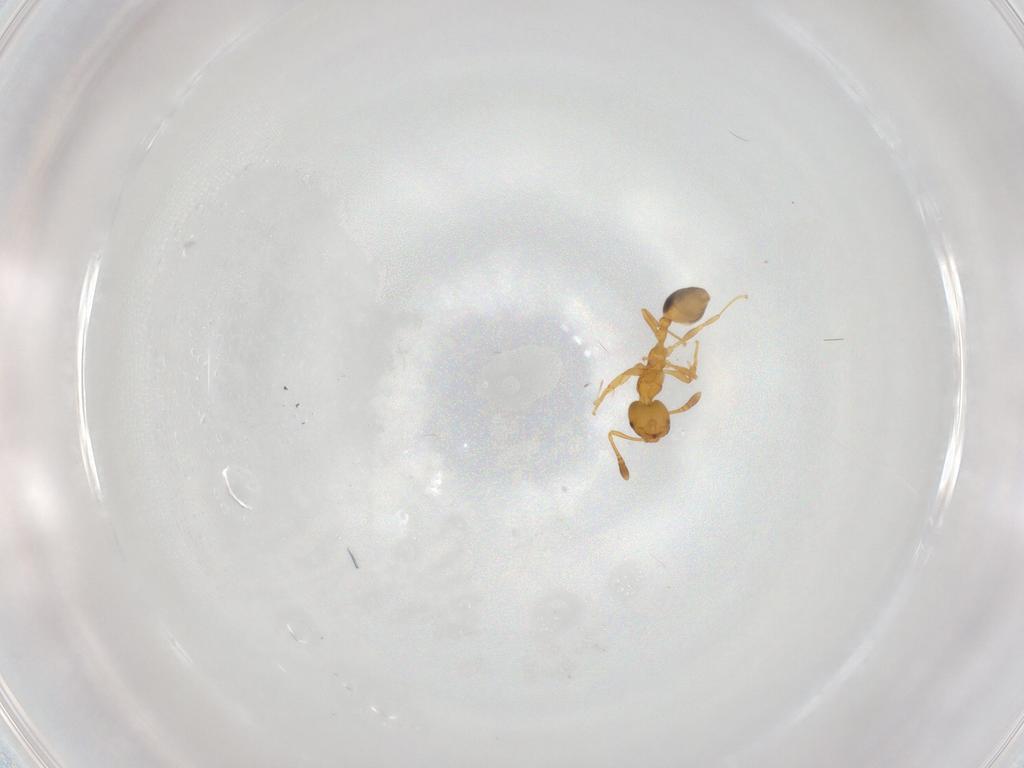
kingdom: Animalia
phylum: Arthropoda
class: Insecta
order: Hymenoptera
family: Formicidae
